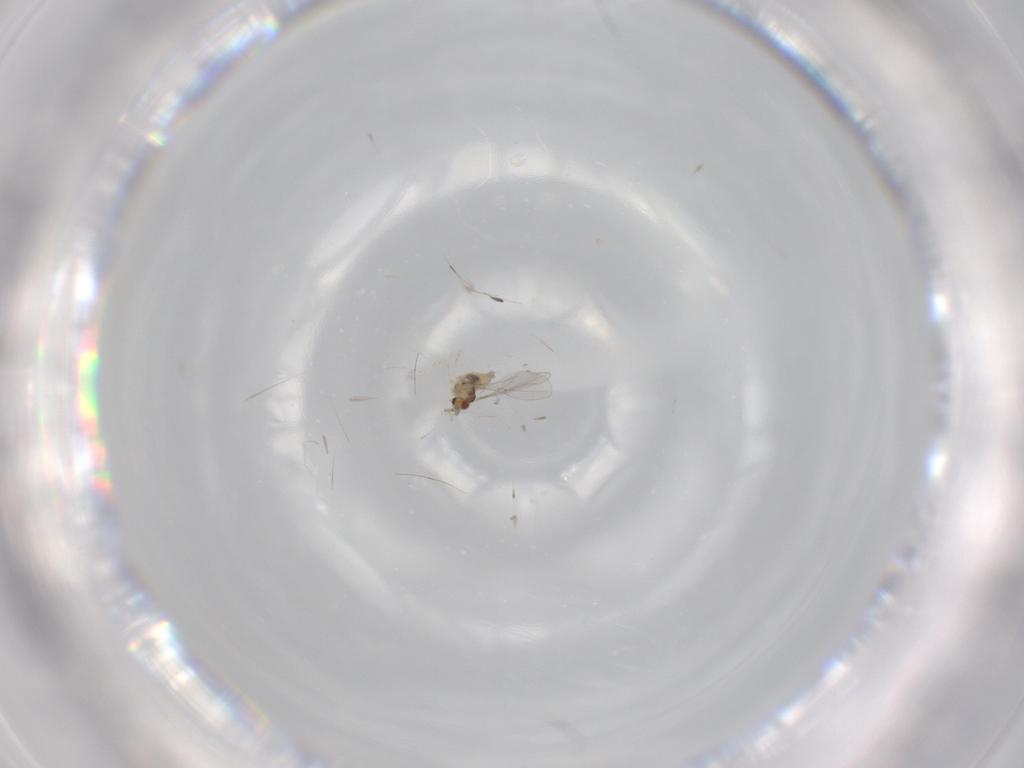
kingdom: Animalia
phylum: Arthropoda
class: Insecta
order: Diptera
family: Cecidomyiidae
